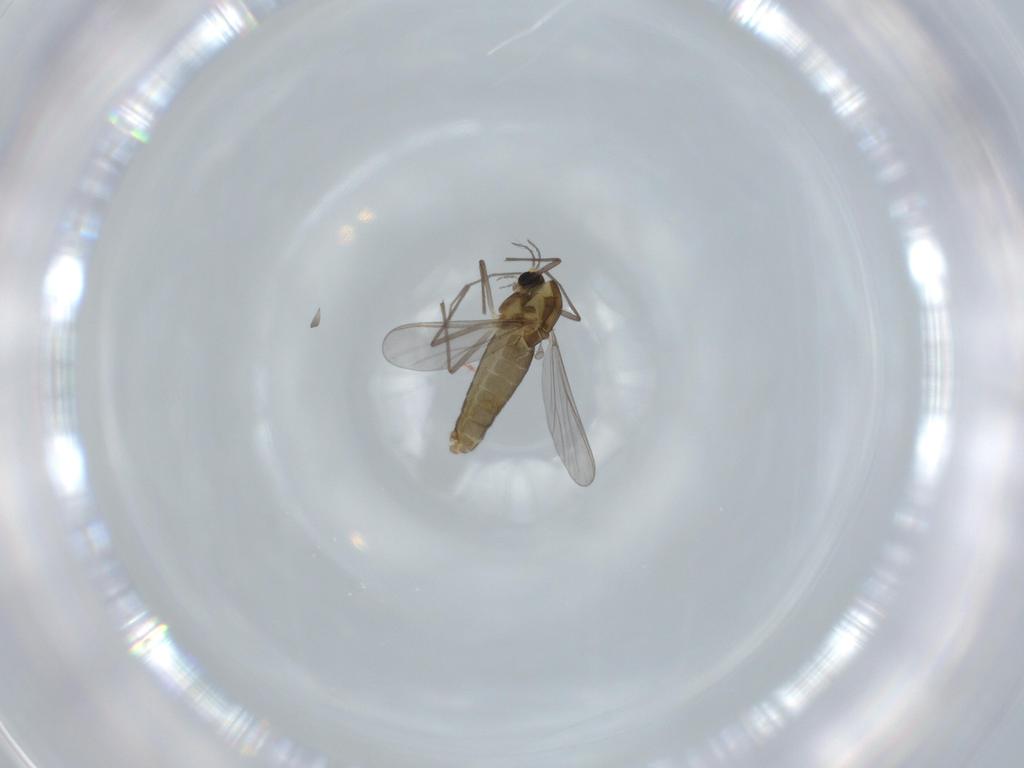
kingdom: Animalia
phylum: Arthropoda
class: Insecta
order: Diptera
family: Chironomidae
